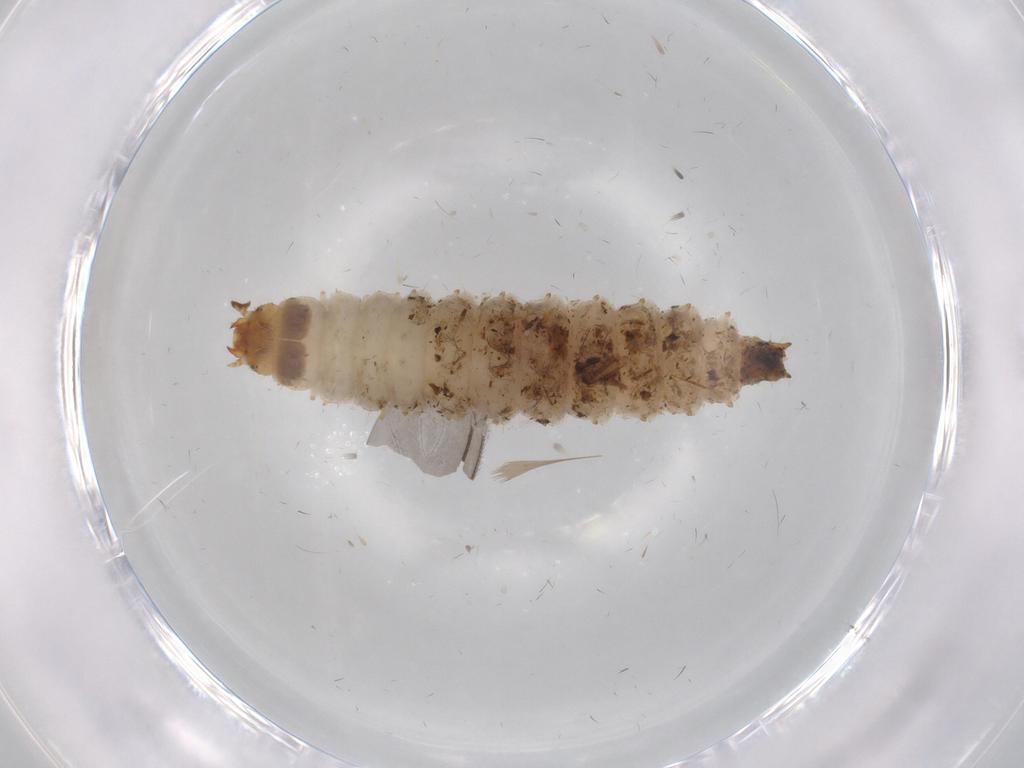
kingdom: Animalia
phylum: Arthropoda
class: Insecta
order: Coleoptera
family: Nitidulidae
